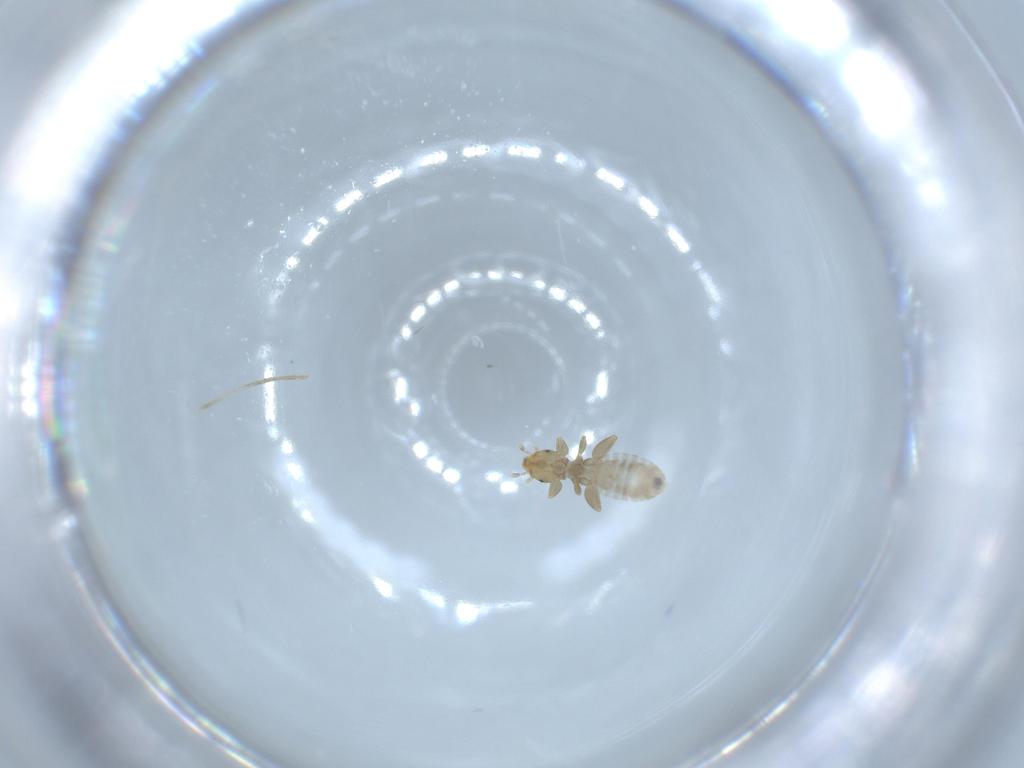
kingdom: Animalia
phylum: Arthropoda
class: Insecta
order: Psocodea
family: Liposcelididae
